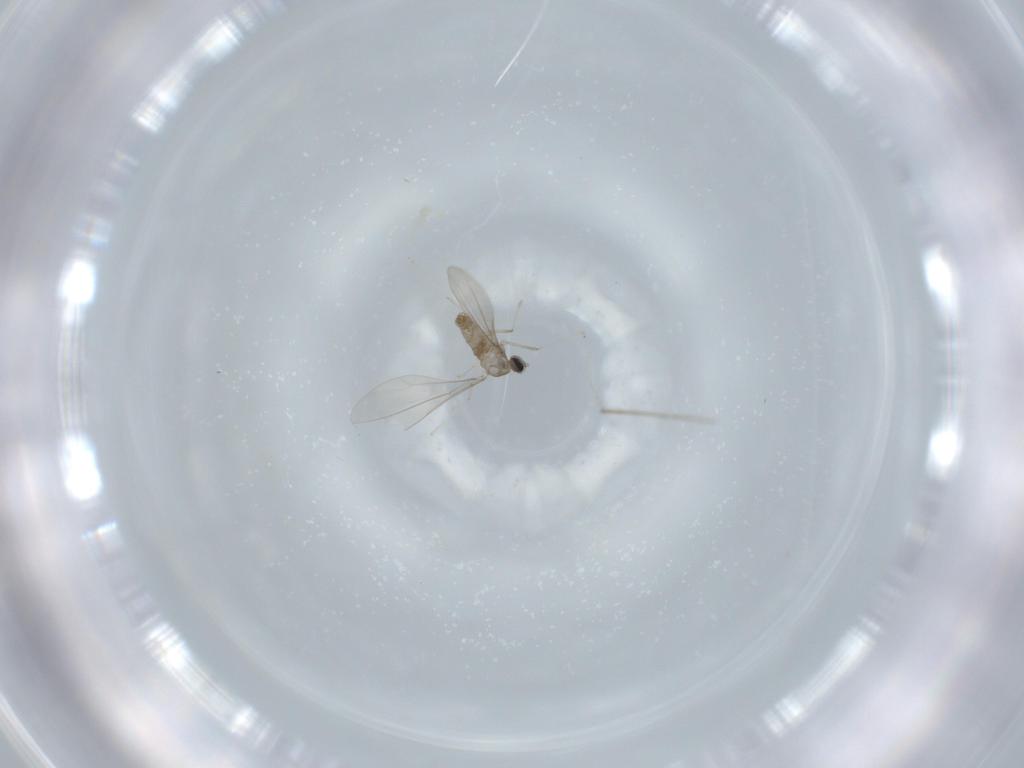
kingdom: Animalia
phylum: Arthropoda
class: Insecta
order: Diptera
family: Cecidomyiidae
